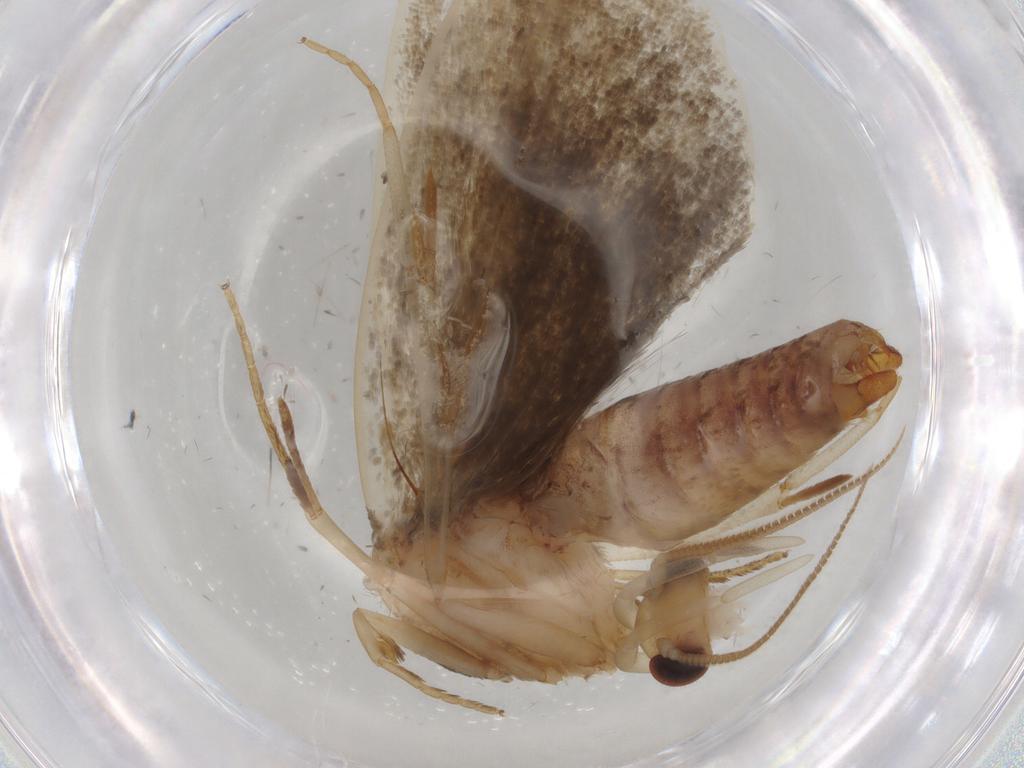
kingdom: Animalia
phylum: Arthropoda
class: Insecta
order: Lepidoptera
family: Tineidae
